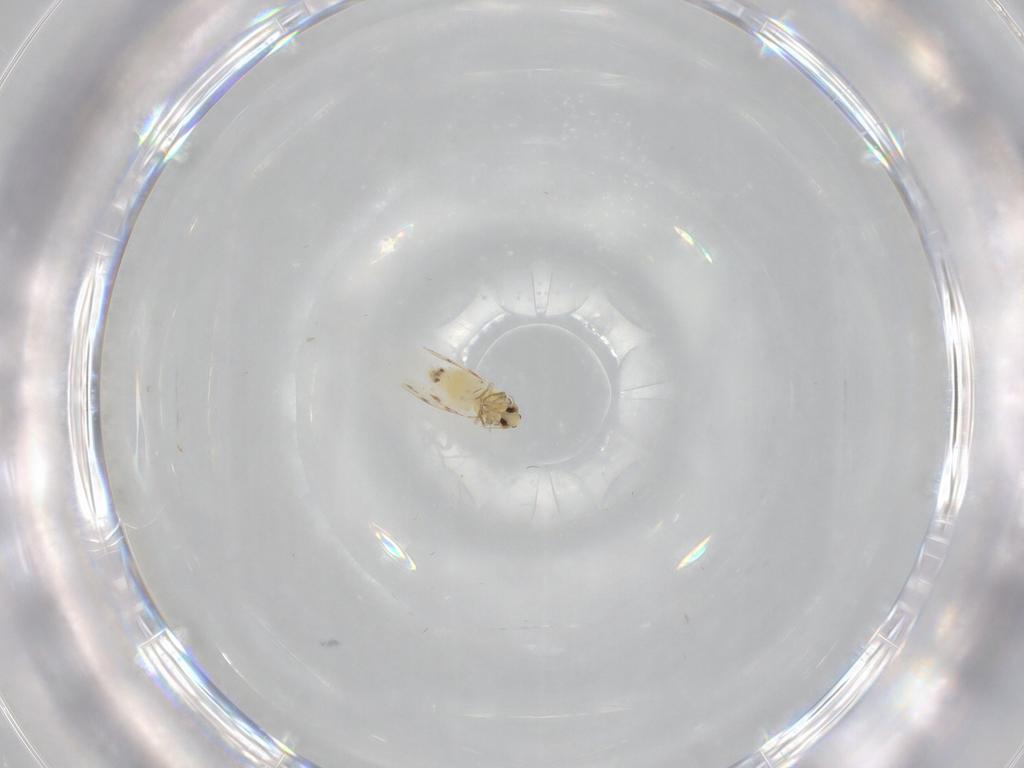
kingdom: Animalia
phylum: Arthropoda
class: Insecta
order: Hemiptera
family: Aleyrodidae
